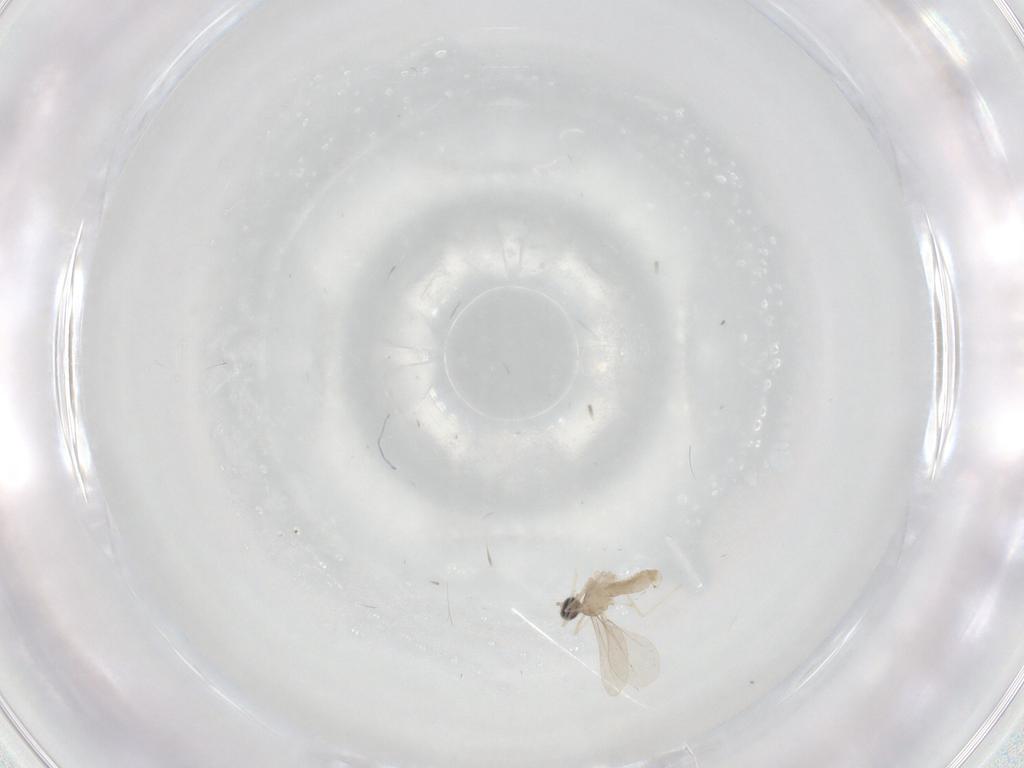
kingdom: Animalia
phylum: Arthropoda
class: Insecta
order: Diptera
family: Cecidomyiidae
